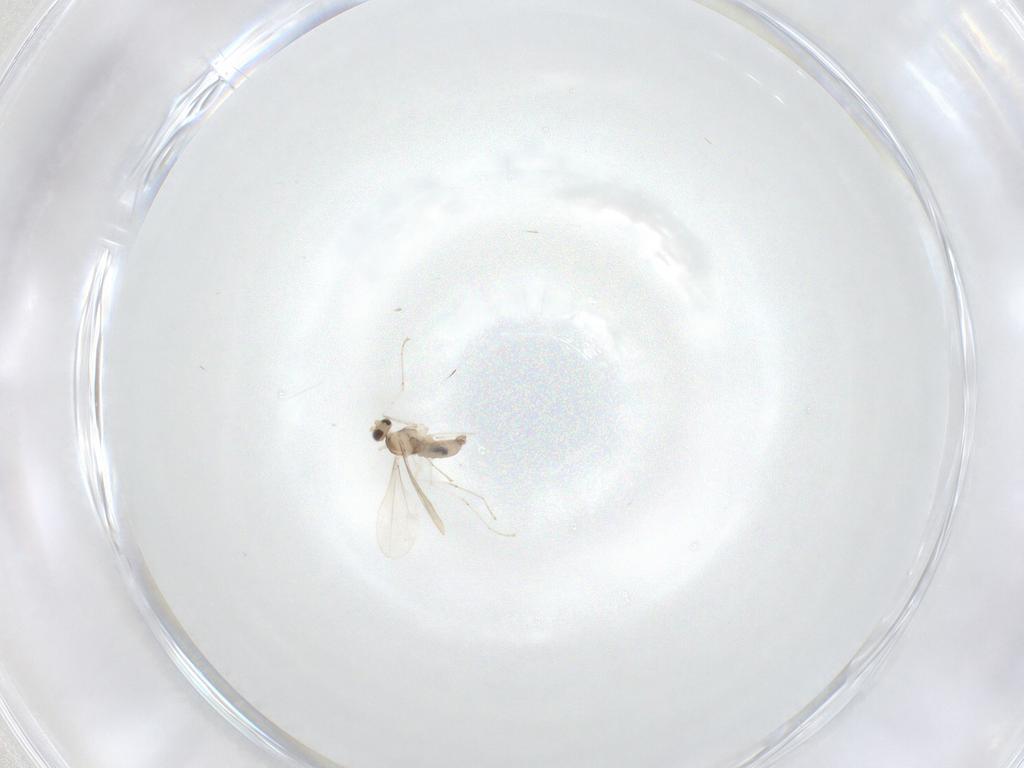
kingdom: Animalia
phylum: Arthropoda
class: Insecta
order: Diptera
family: Cecidomyiidae
